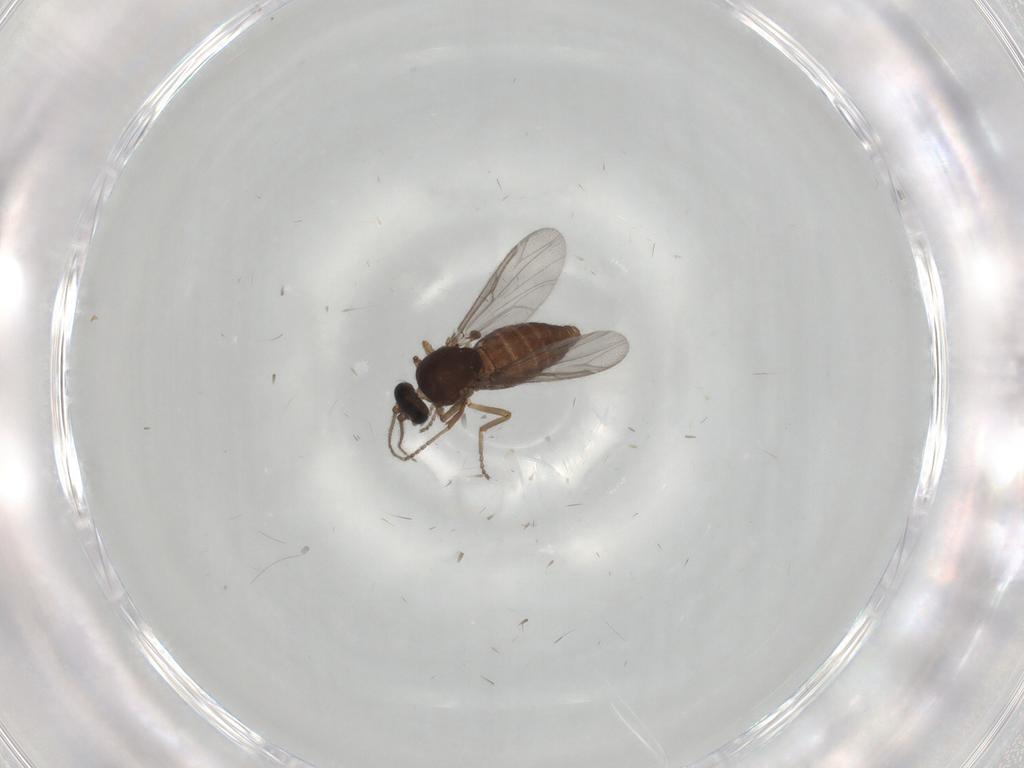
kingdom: Animalia
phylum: Arthropoda
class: Insecta
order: Diptera
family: Ceratopogonidae
